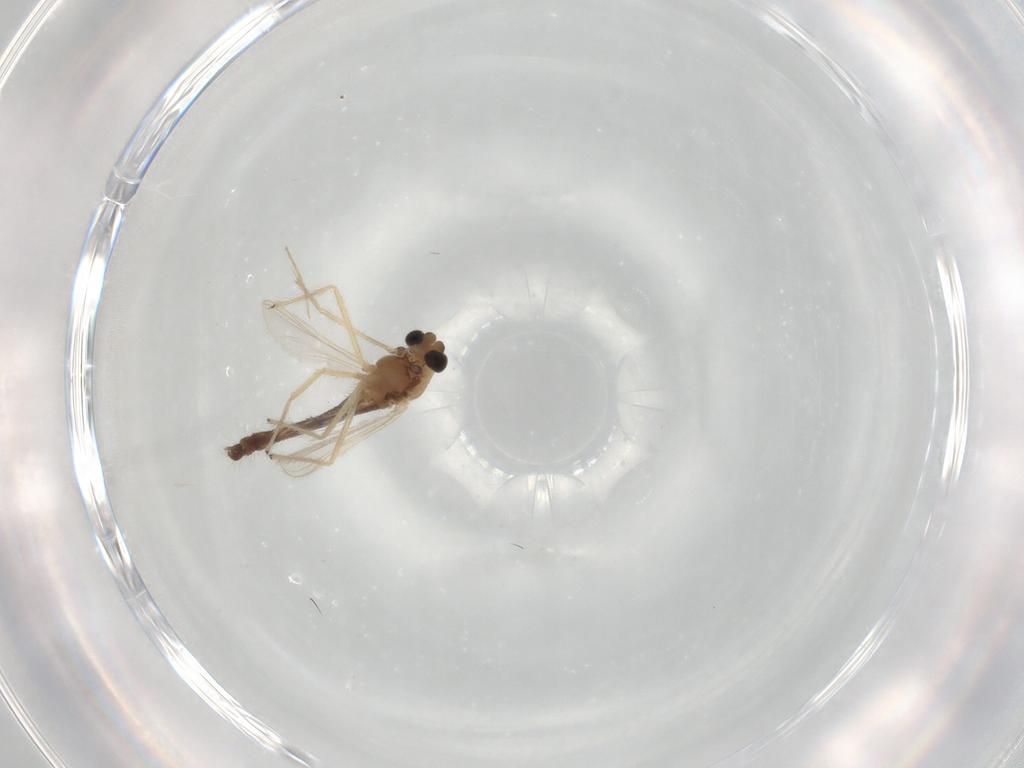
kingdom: Animalia
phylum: Arthropoda
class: Insecta
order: Diptera
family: Chironomidae
